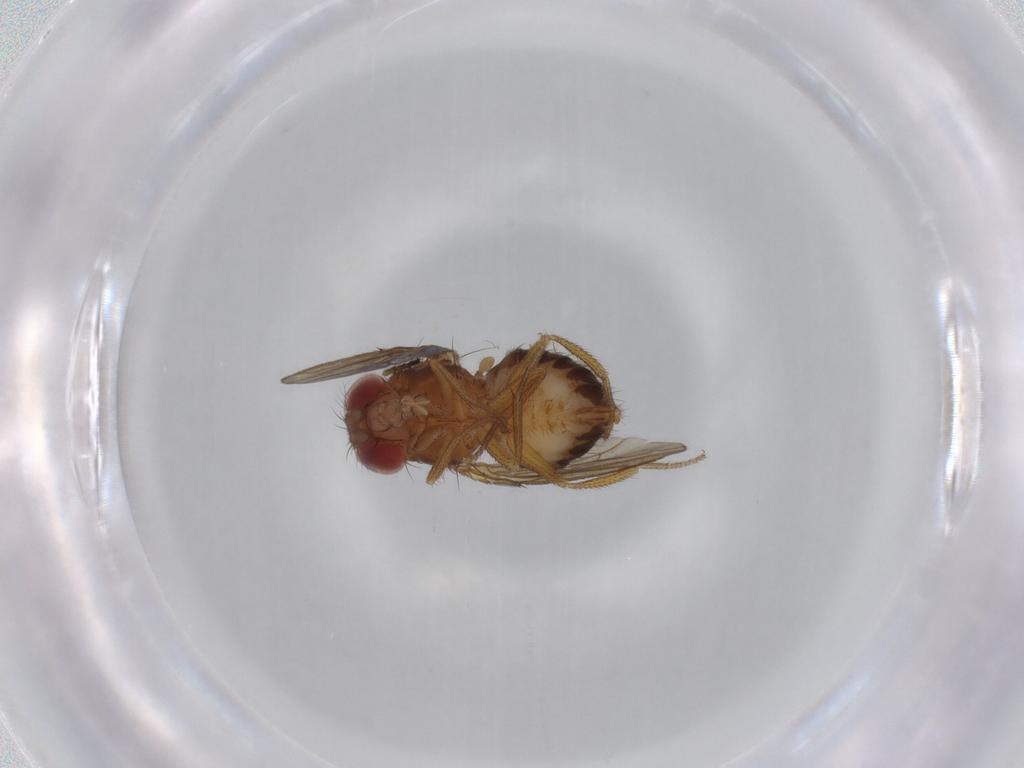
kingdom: Animalia
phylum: Arthropoda
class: Insecta
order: Diptera
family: Drosophilidae
